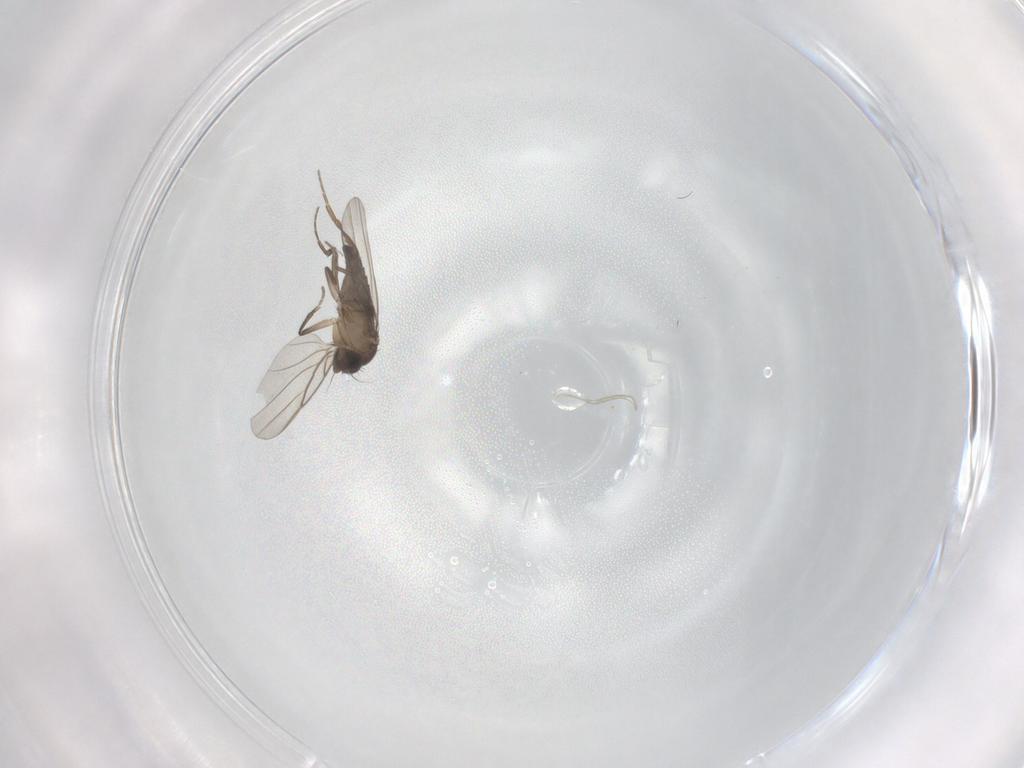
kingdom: Animalia
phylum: Arthropoda
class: Insecta
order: Diptera
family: Phoridae
